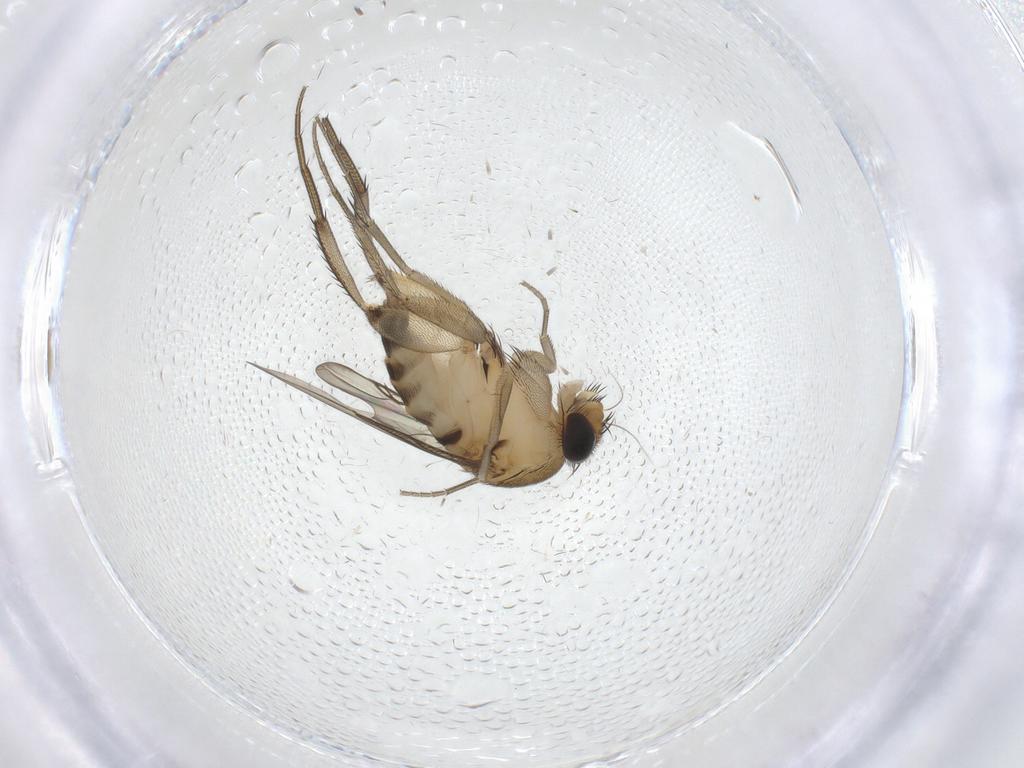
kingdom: Animalia
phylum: Arthropoda
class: Insecta
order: Diptera
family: Phoridae
